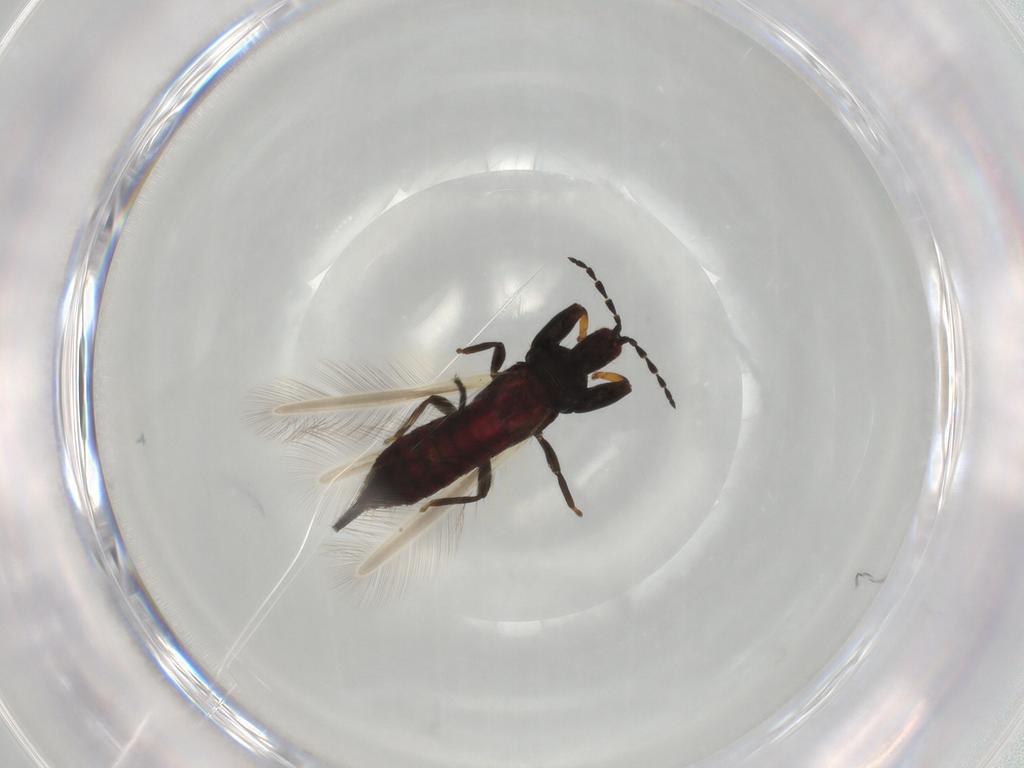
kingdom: Animalia
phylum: Arthropoda
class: Insecta
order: Thysanoptera
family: Phlaeothripidae
